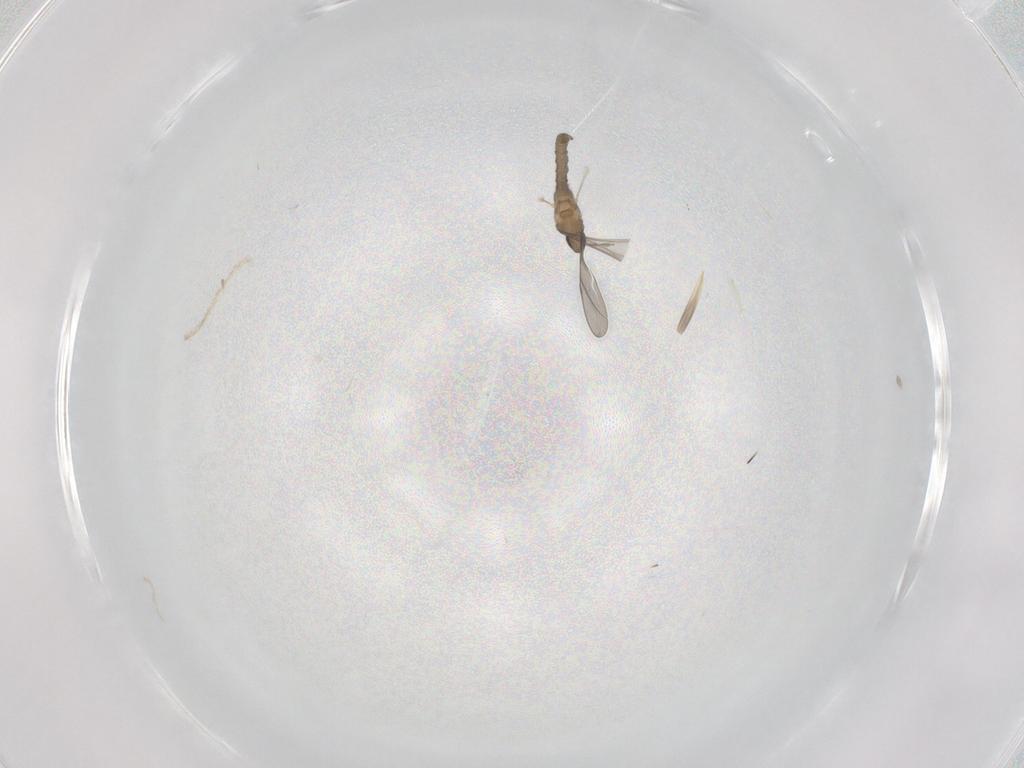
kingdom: Animalia
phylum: Arthropoda
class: Insecta
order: Diptera
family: Cecidomyiidae
